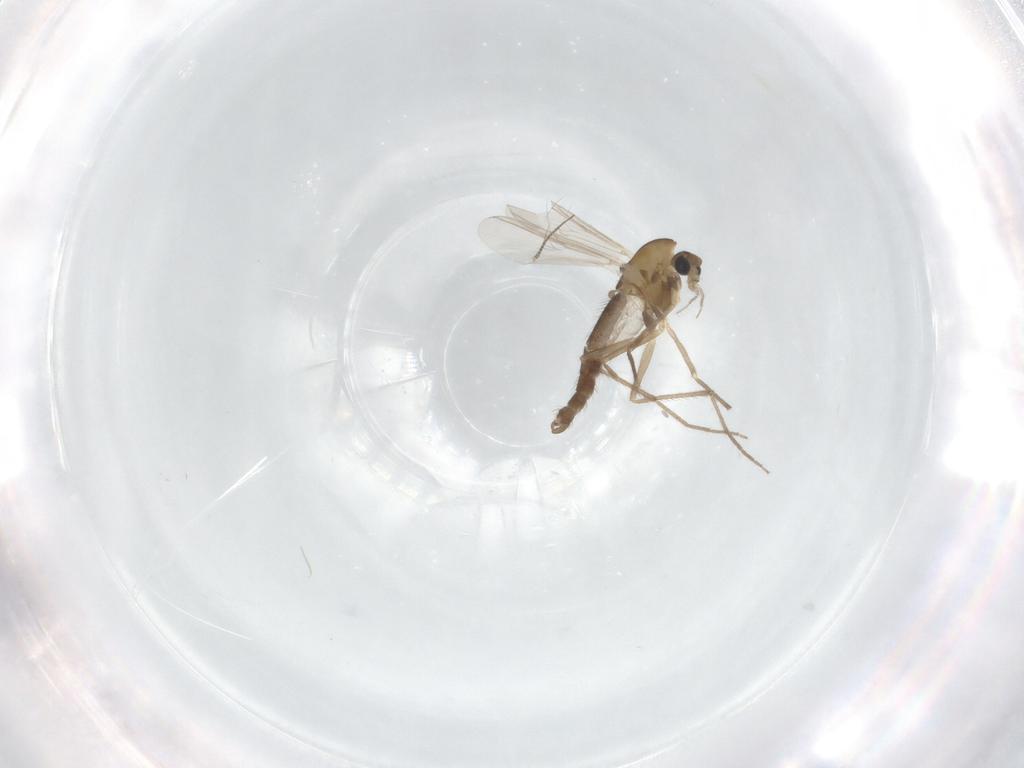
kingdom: Animalia
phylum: Arthropoda
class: Insecta
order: Diptera
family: Chironomidae
